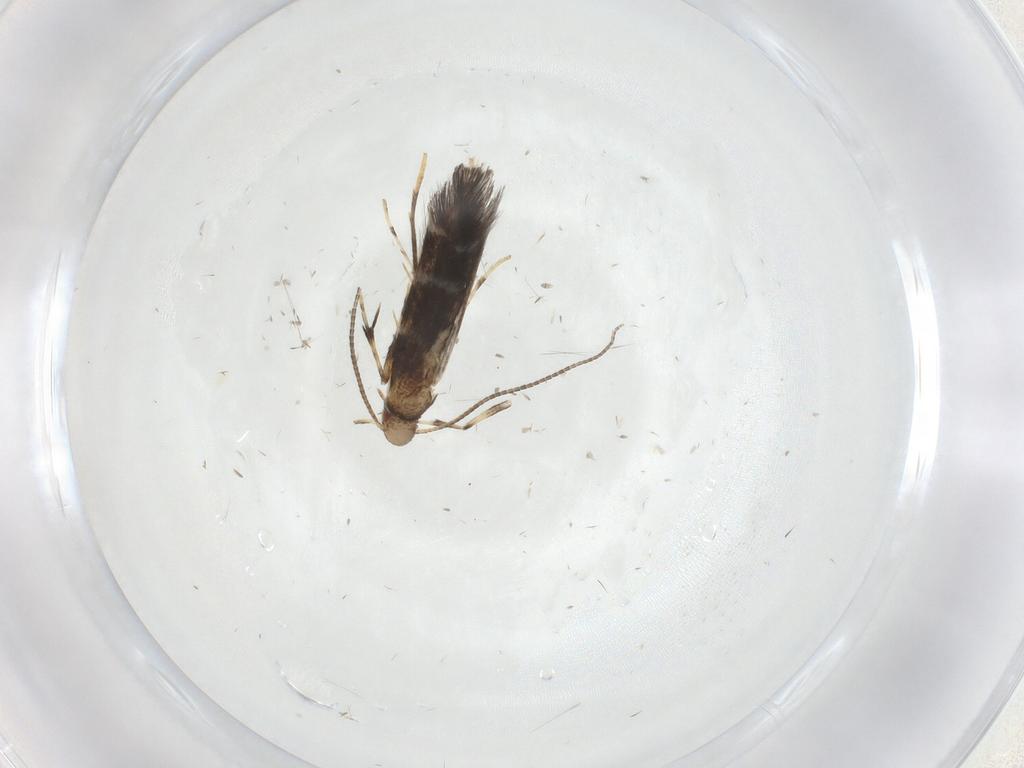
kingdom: Animalia
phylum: Arthropoda
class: Insecta
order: Lepidoptera
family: Gracillariidae
